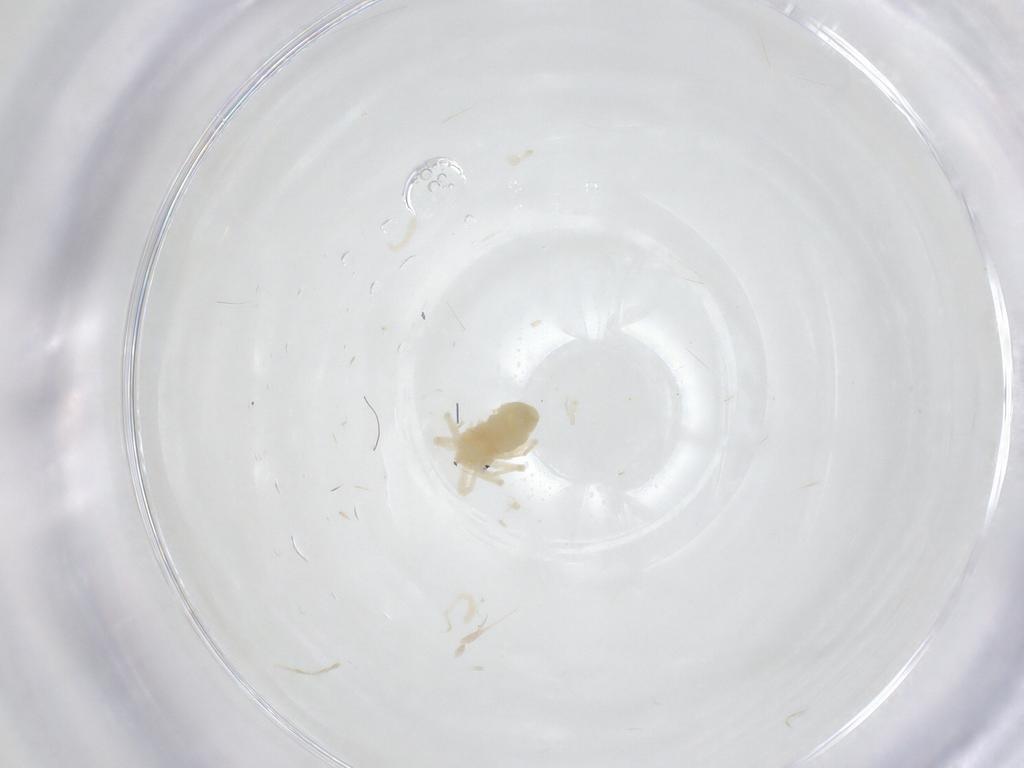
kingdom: Animalia
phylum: Arthropoda
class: Arachnida
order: Trombidiformes
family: Anystidae
